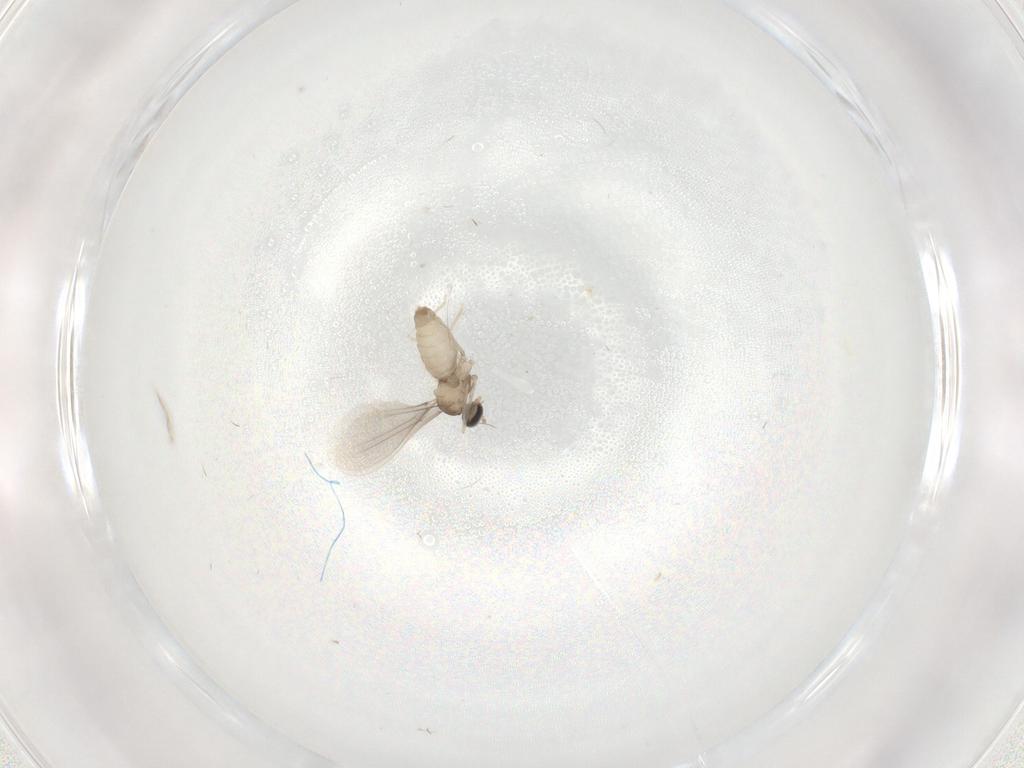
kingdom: Animalia
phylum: Arthropoda
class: Insecta
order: Diptera
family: Phoridae
